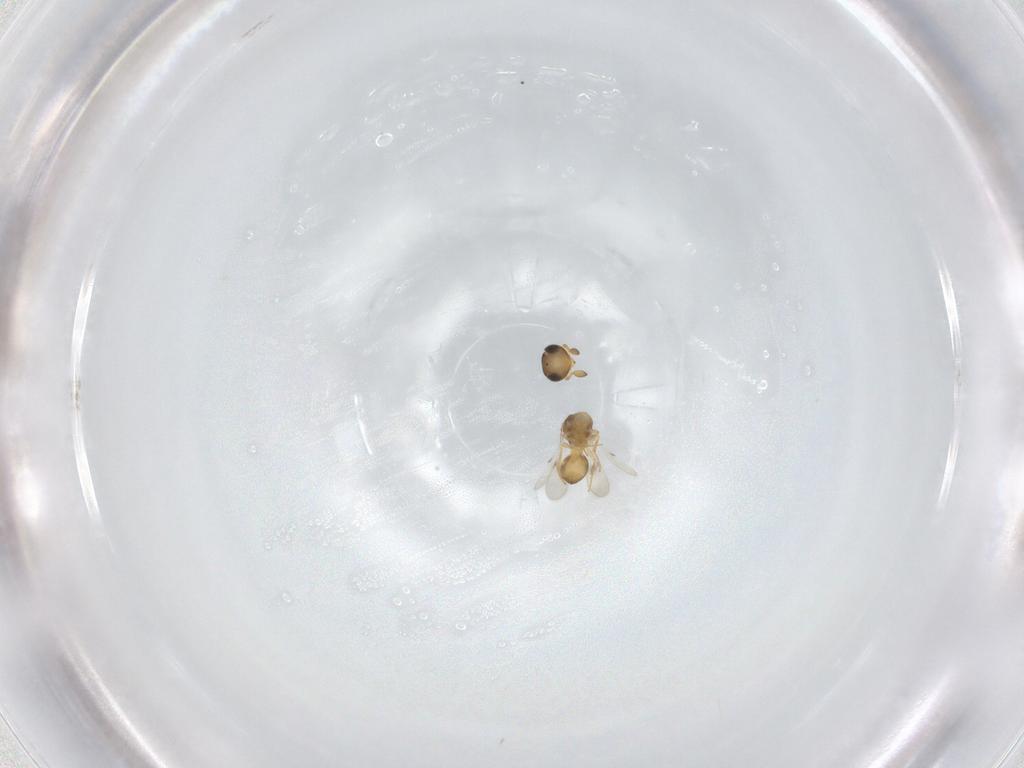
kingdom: Animalia
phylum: Arthropoda
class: Insecta
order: Hymenoptera
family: Scelionidae
